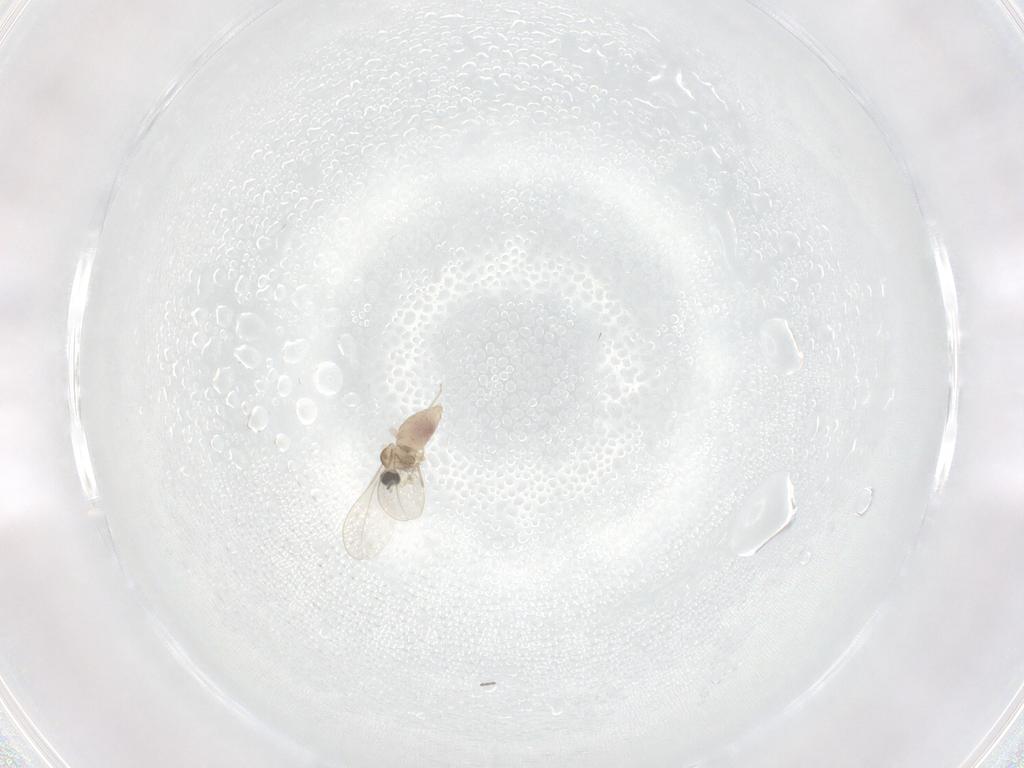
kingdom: Animalia
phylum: Arthropoda
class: Insecta
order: Diptera
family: Cecidomyiidae
